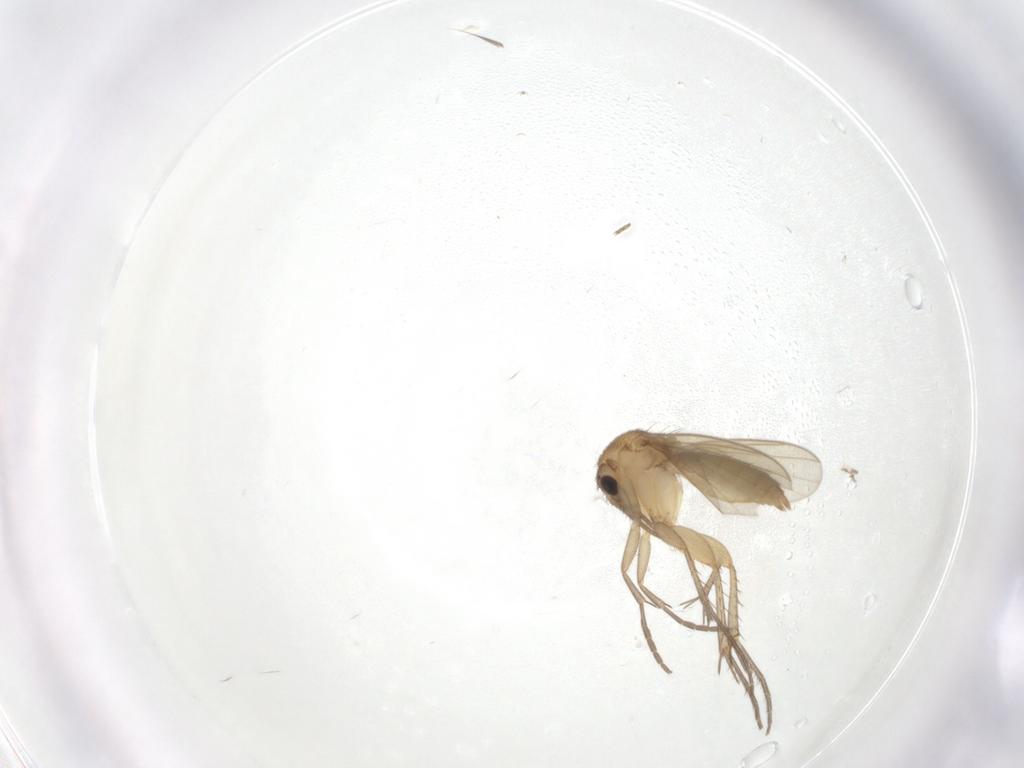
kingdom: Animalia
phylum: Arthropoda
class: Insecta
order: Diptera
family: Mycetophilidae
